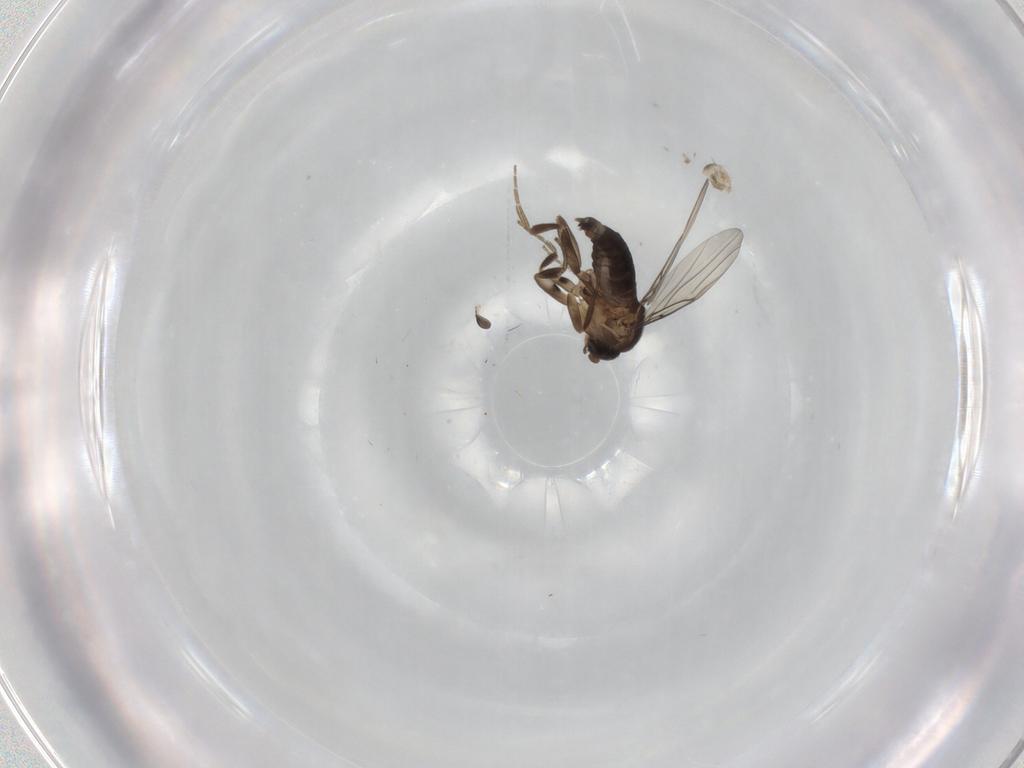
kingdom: Animalia
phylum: Arthropoda
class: Insecta
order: Diptera
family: Phoridae
